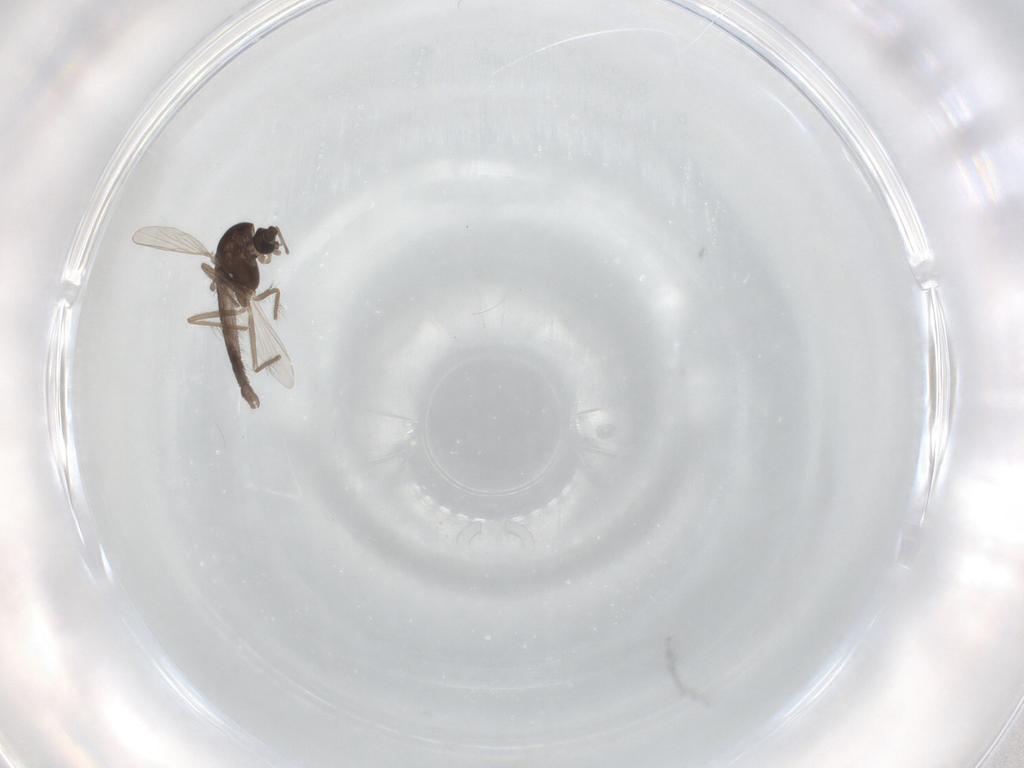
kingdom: Animalia
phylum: Arthropoda
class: Insecta
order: Diptera
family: Chironomidae
